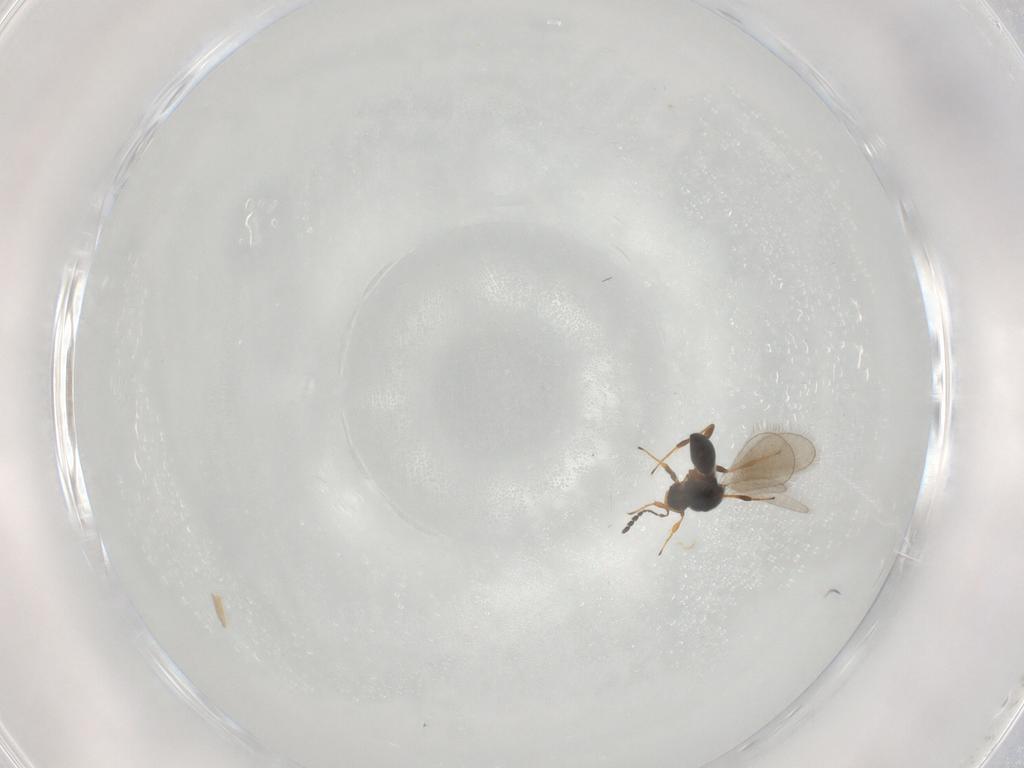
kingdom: Animalia
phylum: Arthropoda
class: Insecta
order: Hymenoptera
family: Platygastridae
